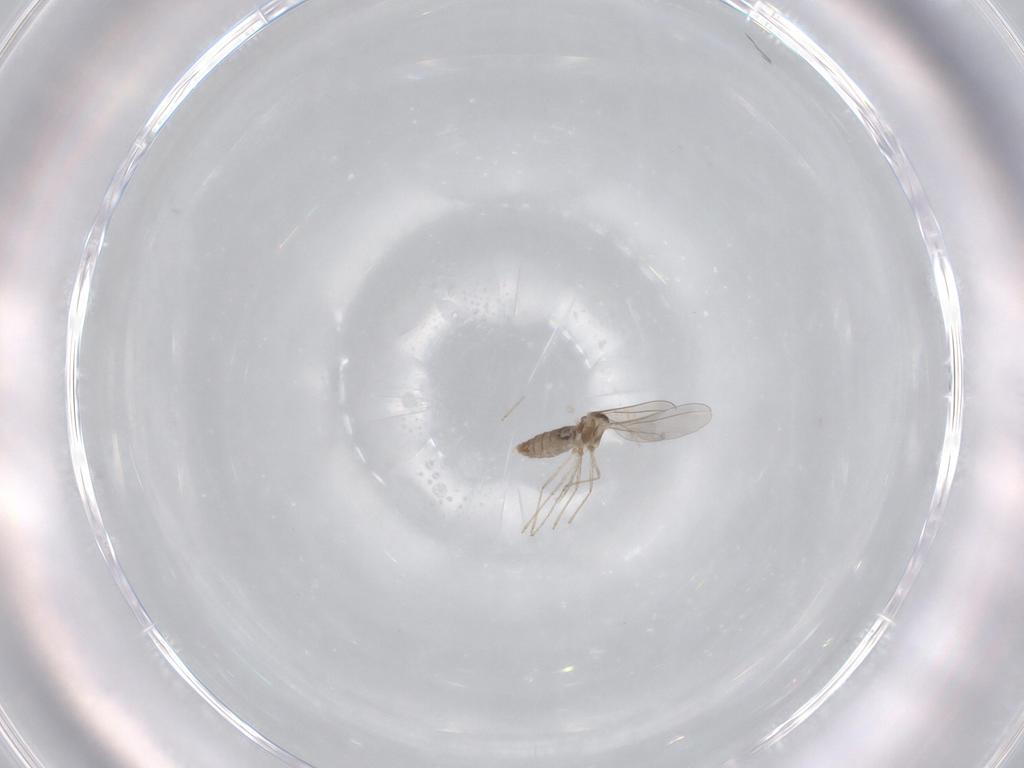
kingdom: Animalia
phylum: Arthropoda
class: Insecta
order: Diptera
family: Cecidomyiidae
